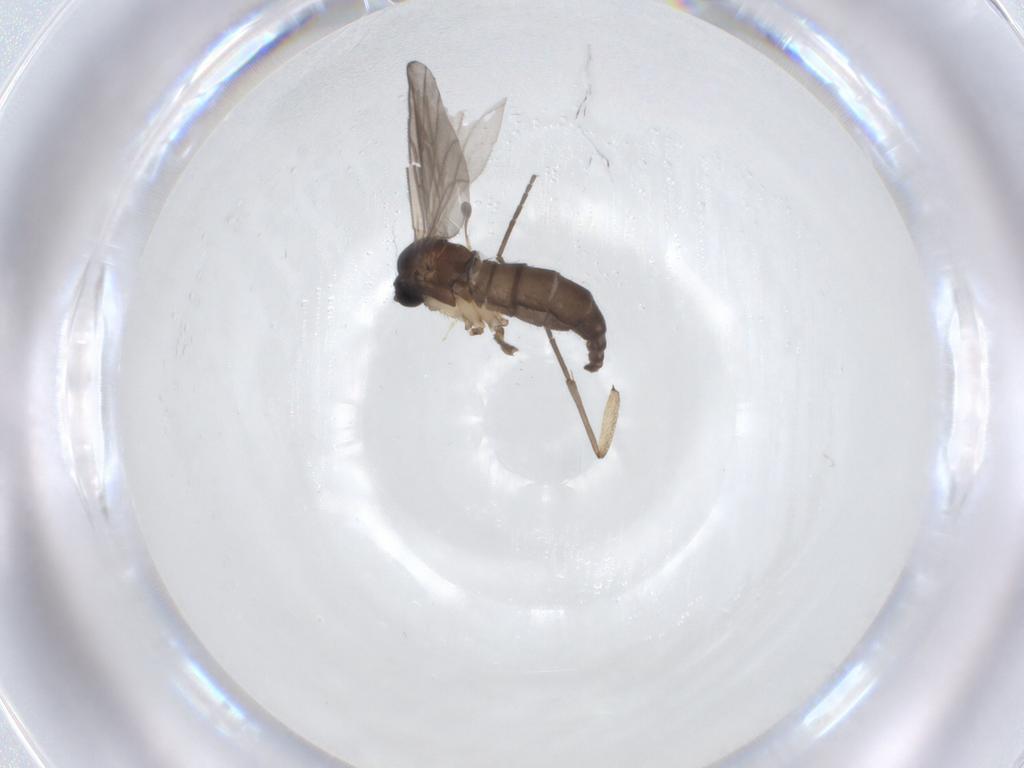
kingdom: Animalia
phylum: Arthropoda
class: Insecta
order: Diptera
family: Sciaridae
